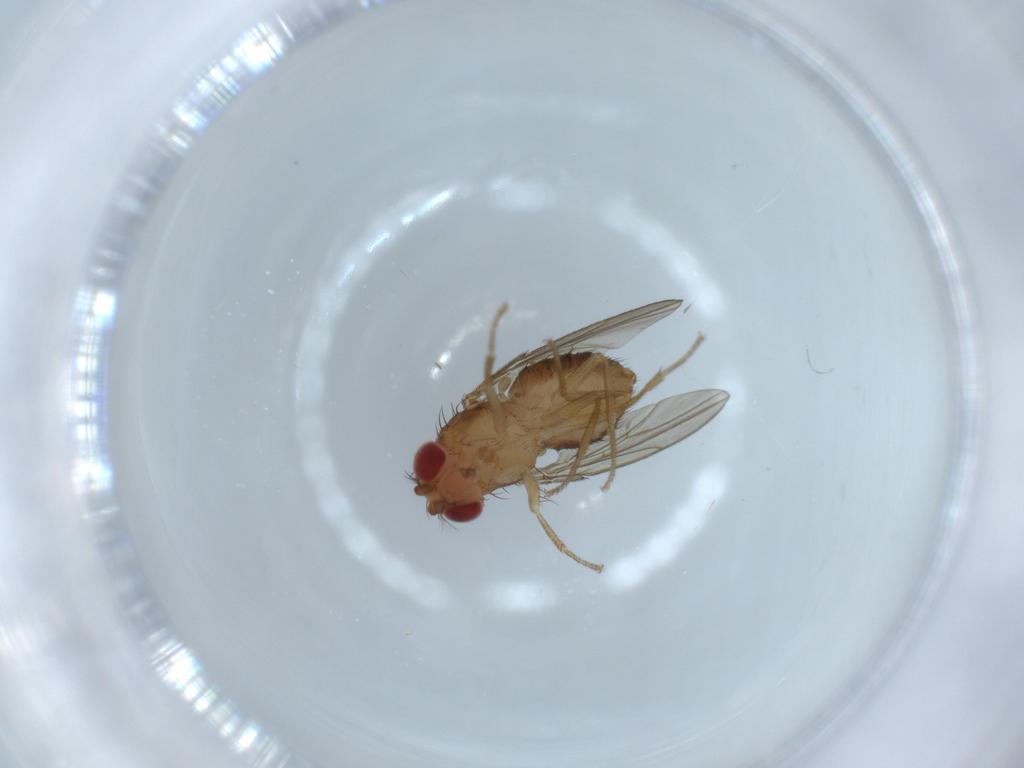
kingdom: Animalia
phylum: Arthropoda
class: Insecta
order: Diptera
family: Drosophilidae
